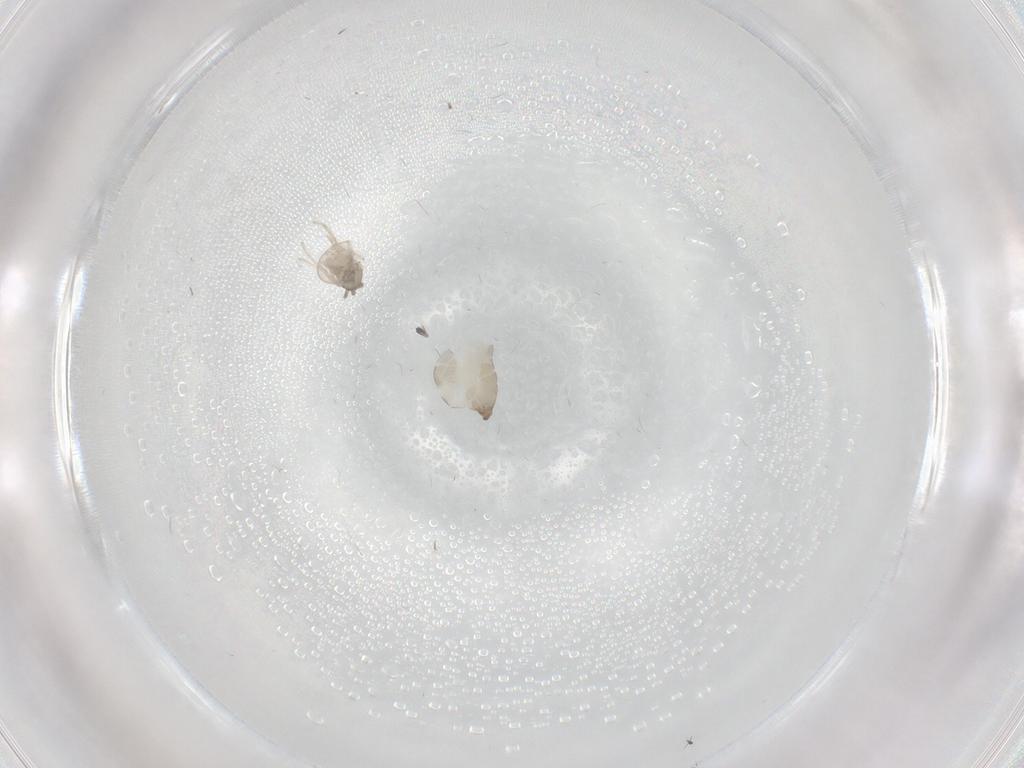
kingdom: Animalia
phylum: Arthropoda
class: Insecta
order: Diptera
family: Cecidomyiidae
